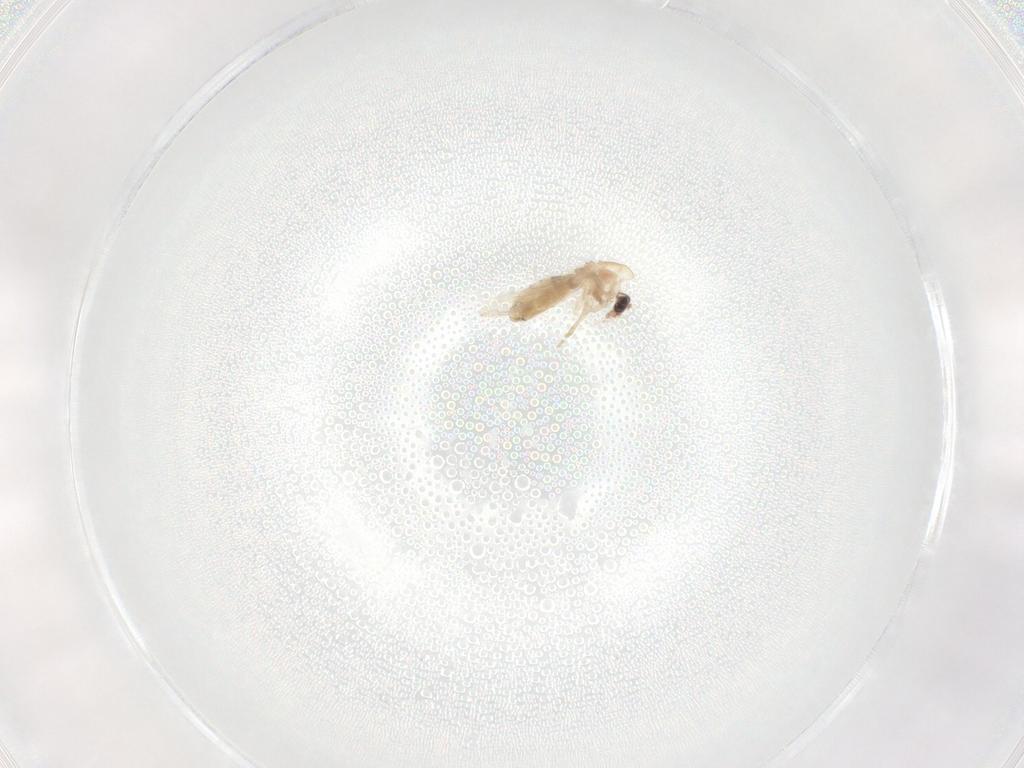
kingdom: Animalia
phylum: Arthropoda
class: Insecta
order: Diptera
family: Chironomidae
